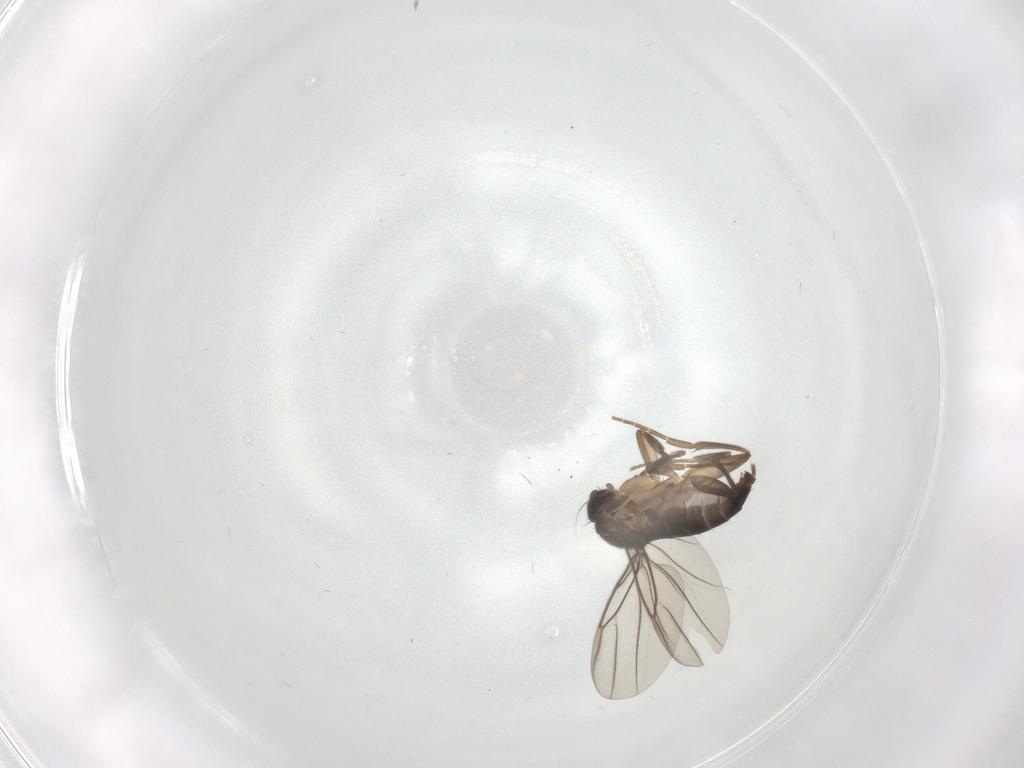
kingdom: Animalia
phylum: Arthropoda
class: Insecta
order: Diptera
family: Phoridae
